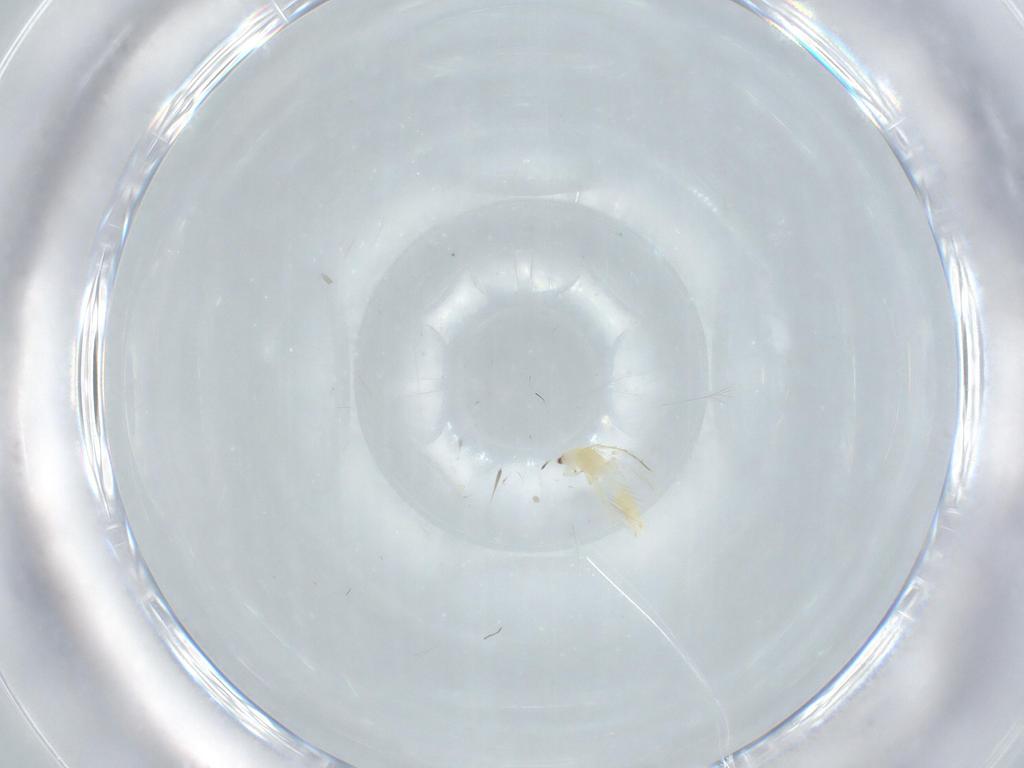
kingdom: Animalia
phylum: Arthropoda
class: Insecta
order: Diptera
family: Sciaridae
